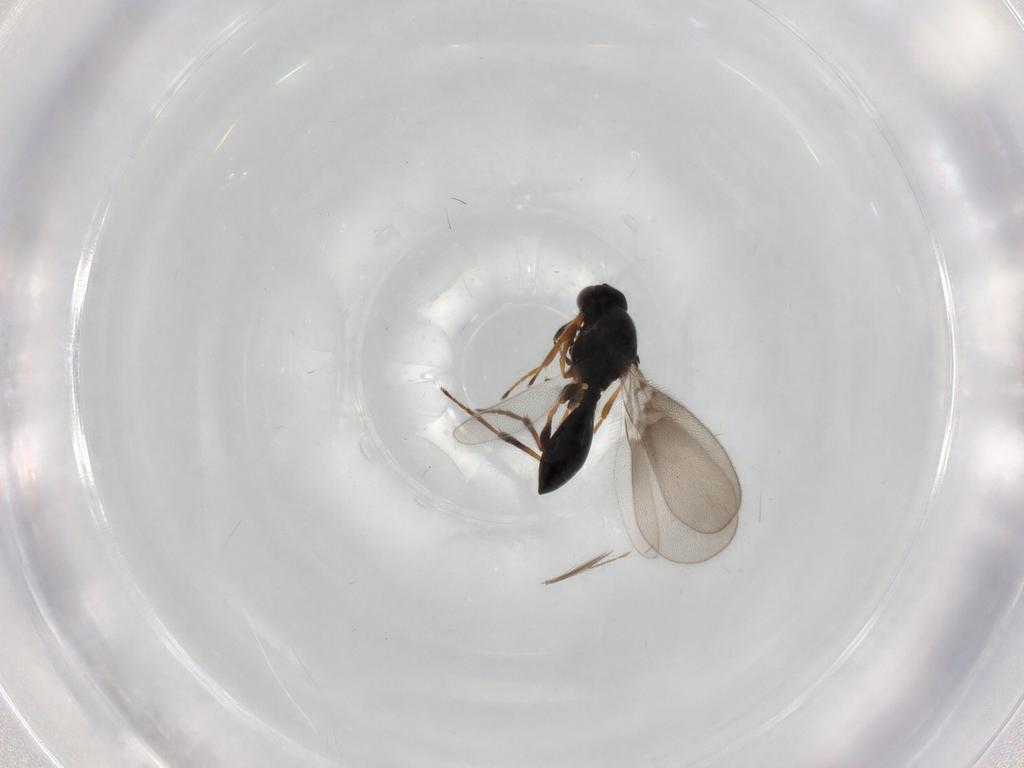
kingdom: Animalia
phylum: Arthropoda
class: Insecta
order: Hymenoptera
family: Platygastridae
